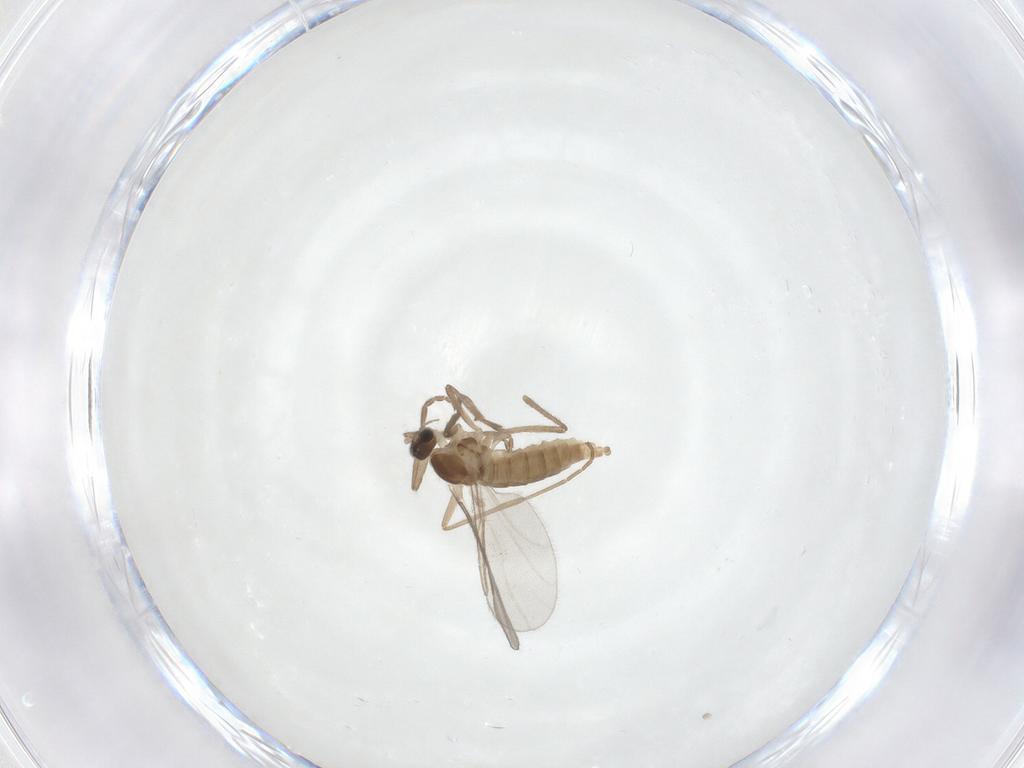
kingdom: Animalia
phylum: Arthropoda
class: Insecta
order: Diptera
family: Cecidomyiidae
